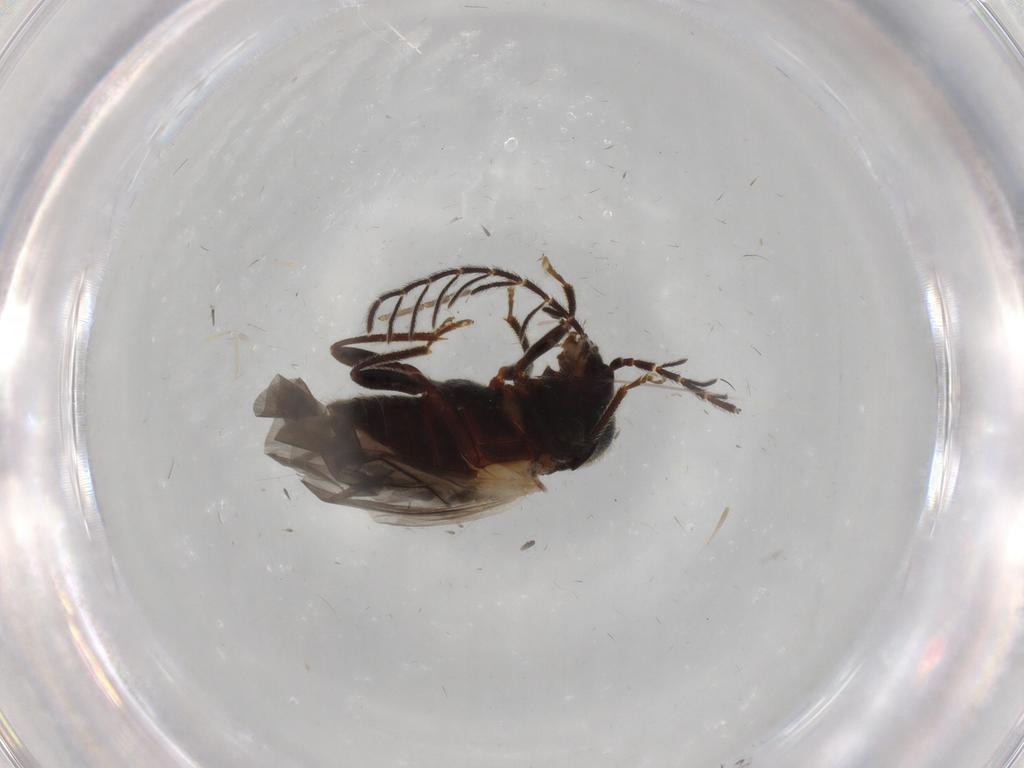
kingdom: Animalia
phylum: Arthropoda
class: Insecta
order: Coleoptera
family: Ptilodactylidae
